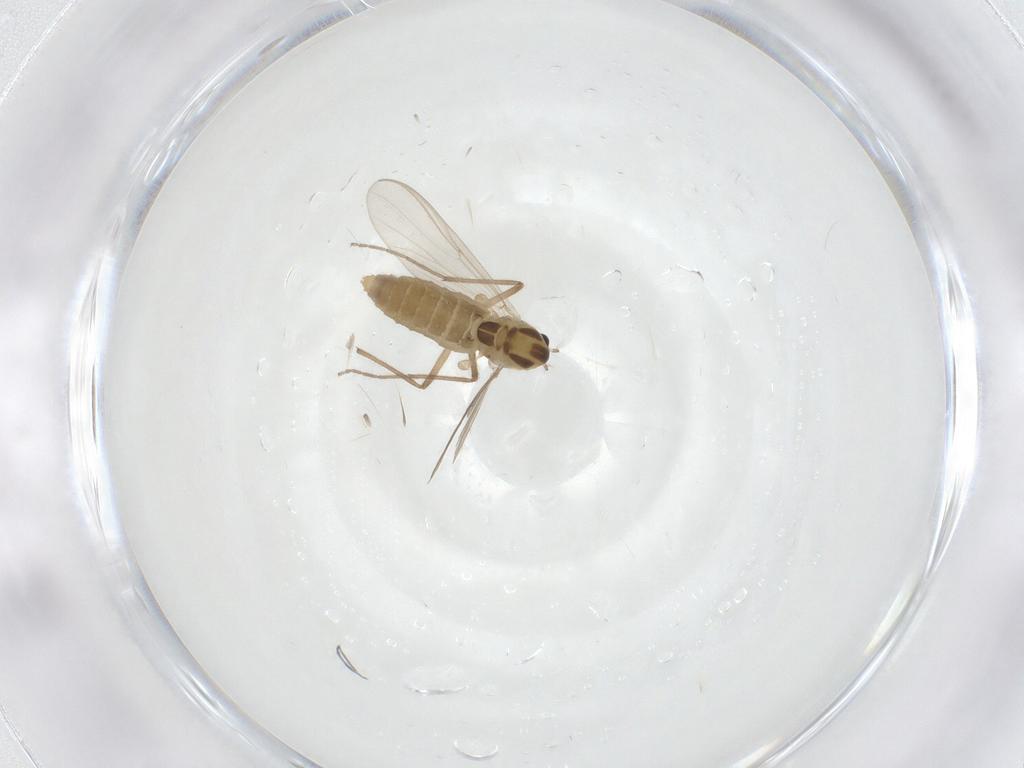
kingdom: Animalia
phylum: Arthropoda
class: Insecta
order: Diptera
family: Chironomidae
